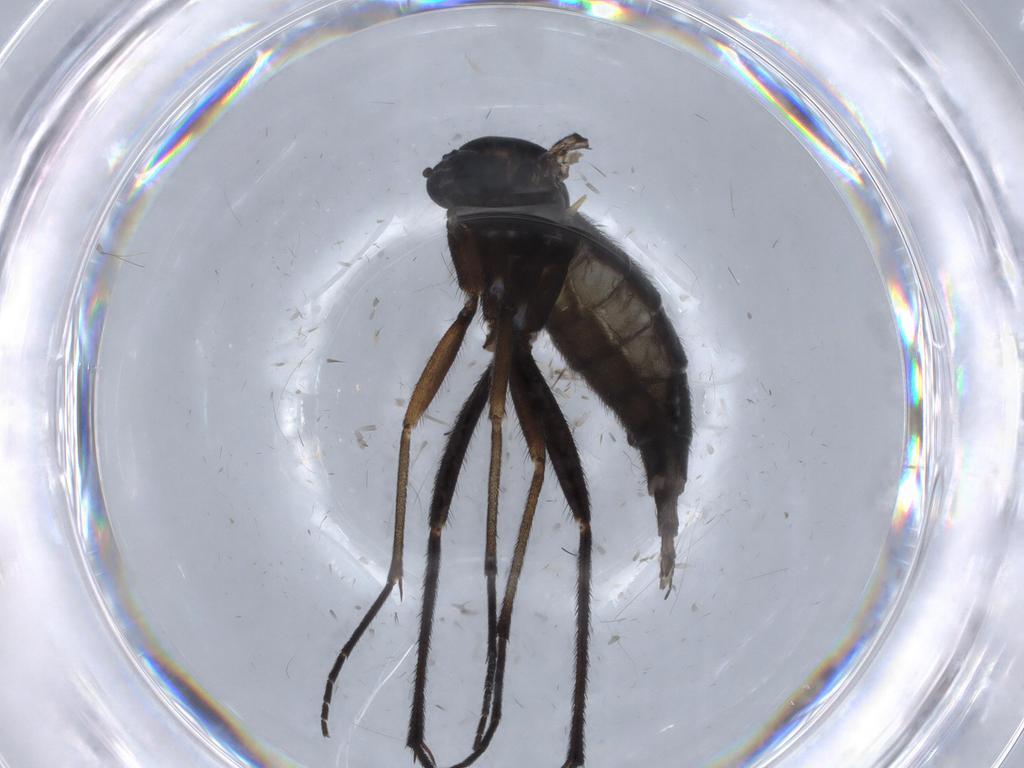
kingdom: Animalia
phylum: Arthropoda
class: Insecta
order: Diptera
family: Sciaridae
